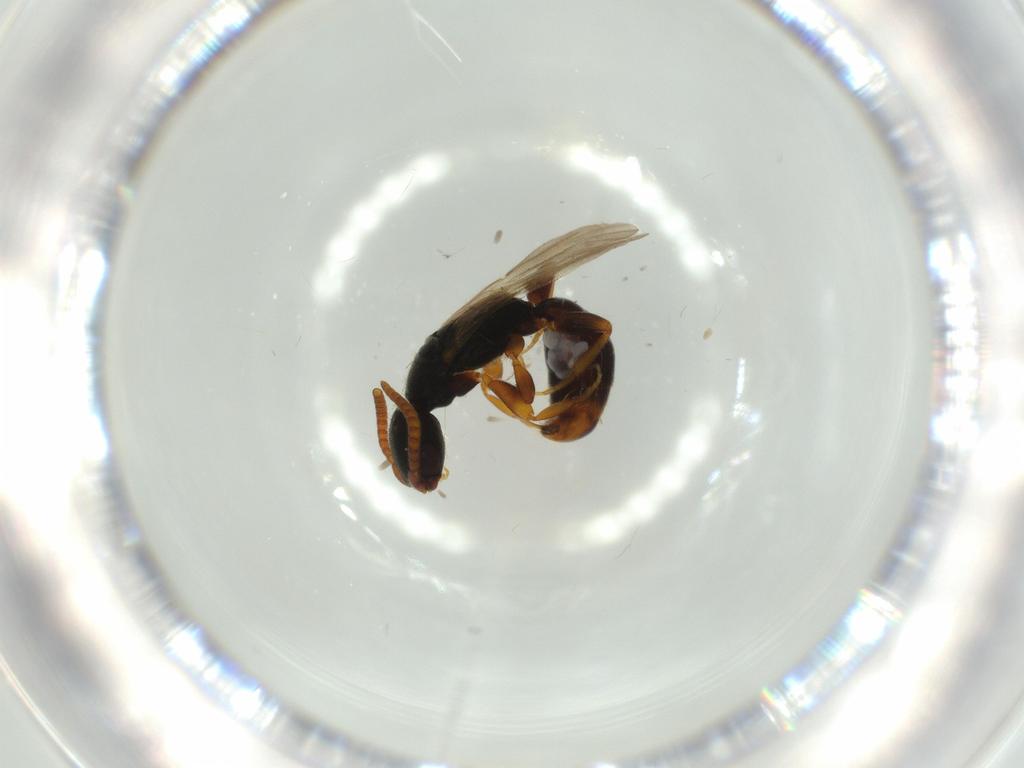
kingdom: Animalia
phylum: Arthropoda
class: Insecta
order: Hymenoptera
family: Bethylidae
